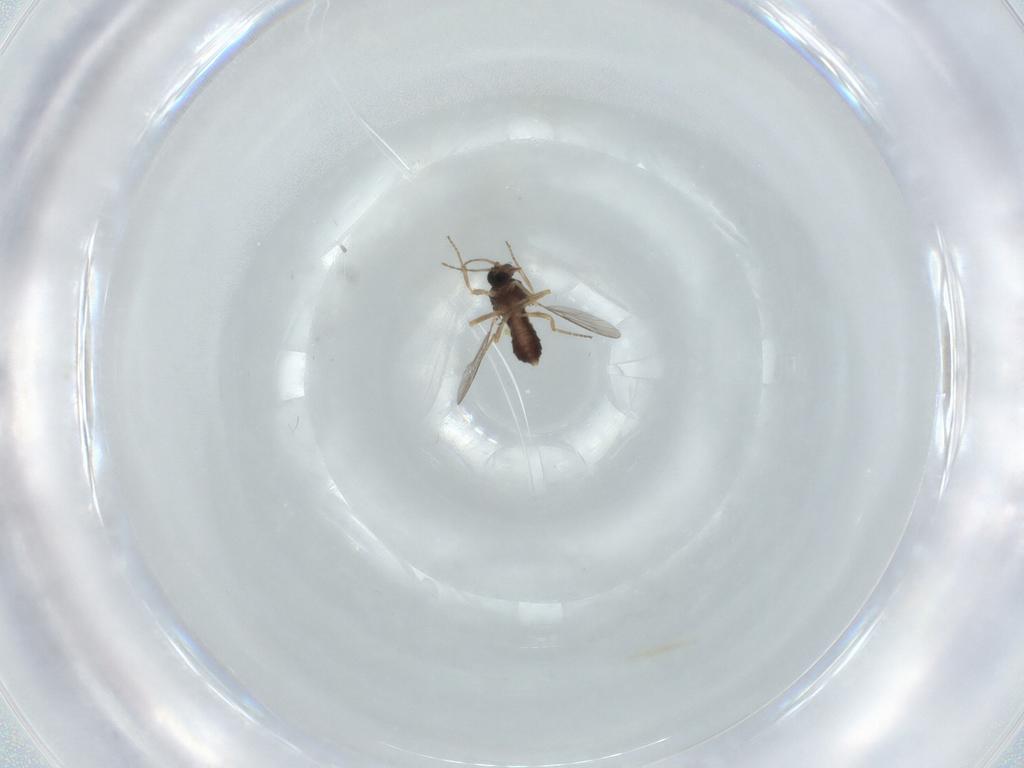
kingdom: Animalia
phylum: Arthropoda
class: Insecta
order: Diptera
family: Ceratopogonidae
